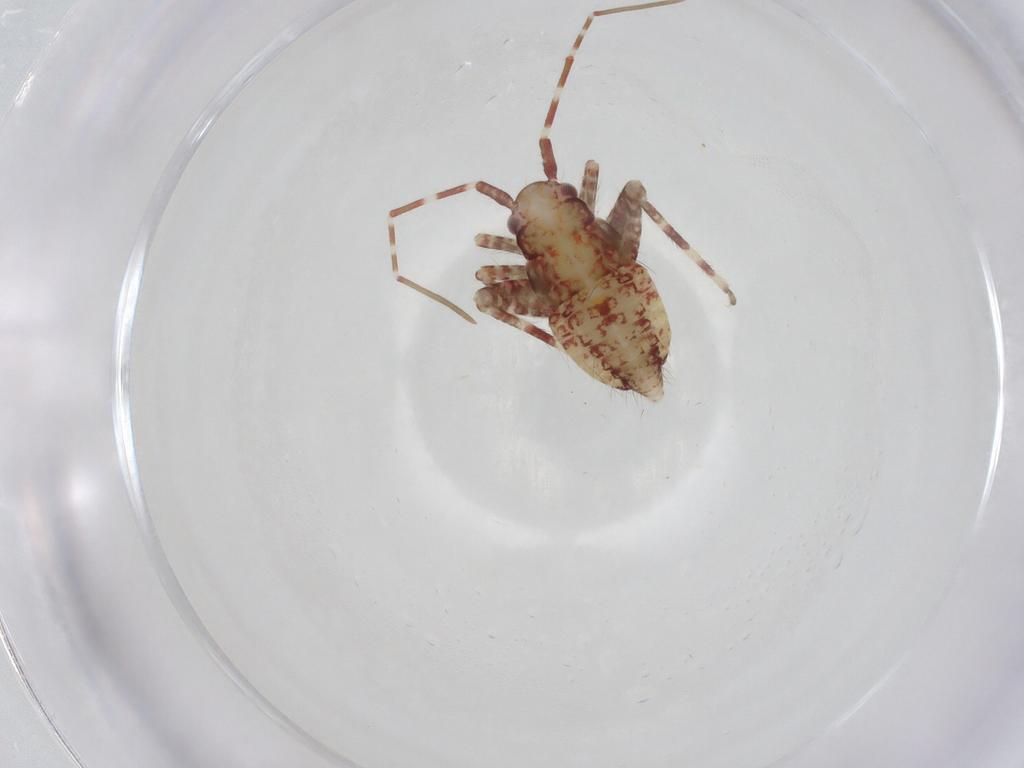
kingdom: Animalia
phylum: Arthropoda
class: Insecta
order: Hemiptera
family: Miridae
